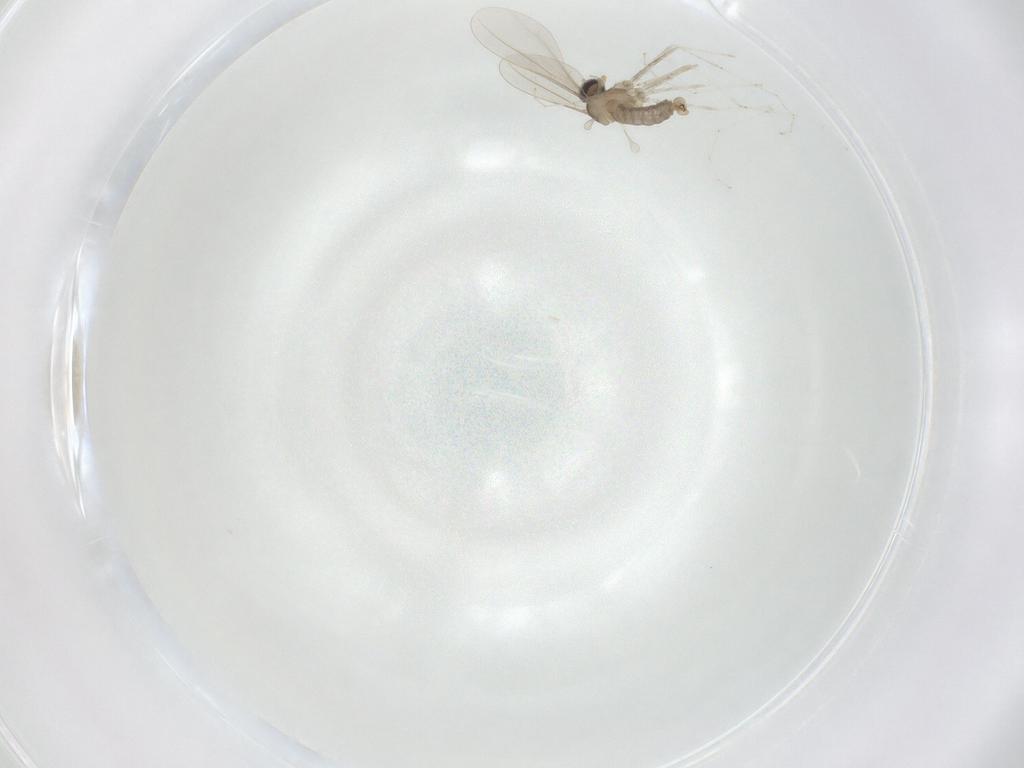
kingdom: Animalia
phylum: Arthropoda
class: Insecta
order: Diptera
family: Cecidomyiidae
